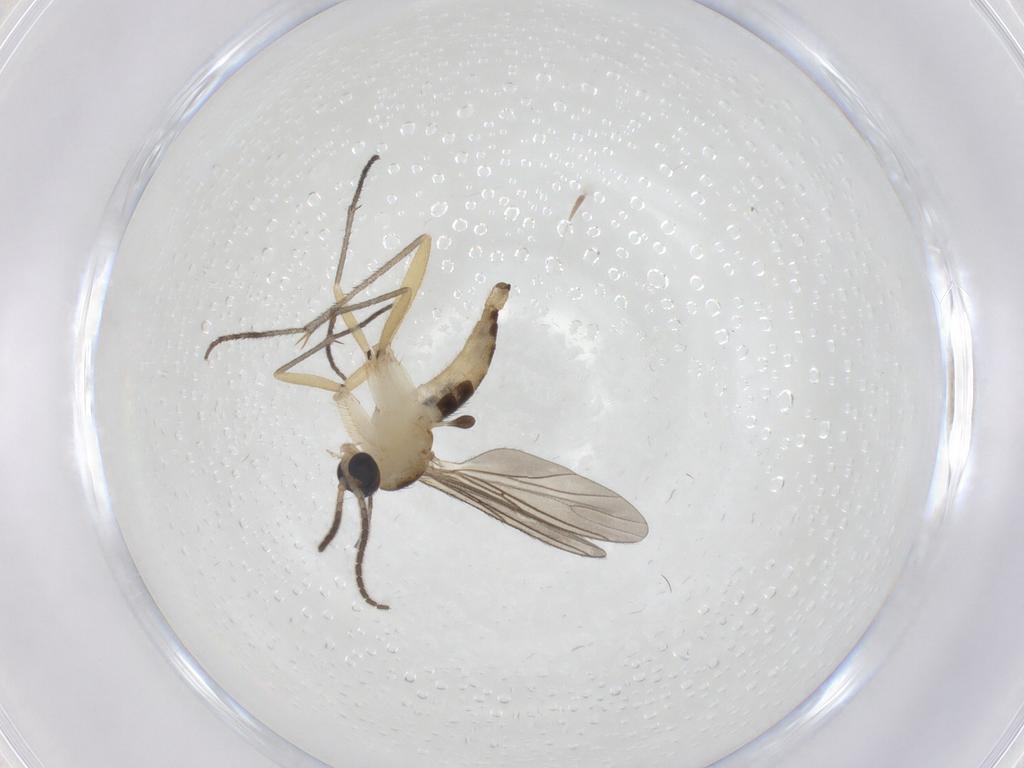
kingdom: Animalia
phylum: Arthropoda
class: Insecta
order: Diptera
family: Sciaridae
